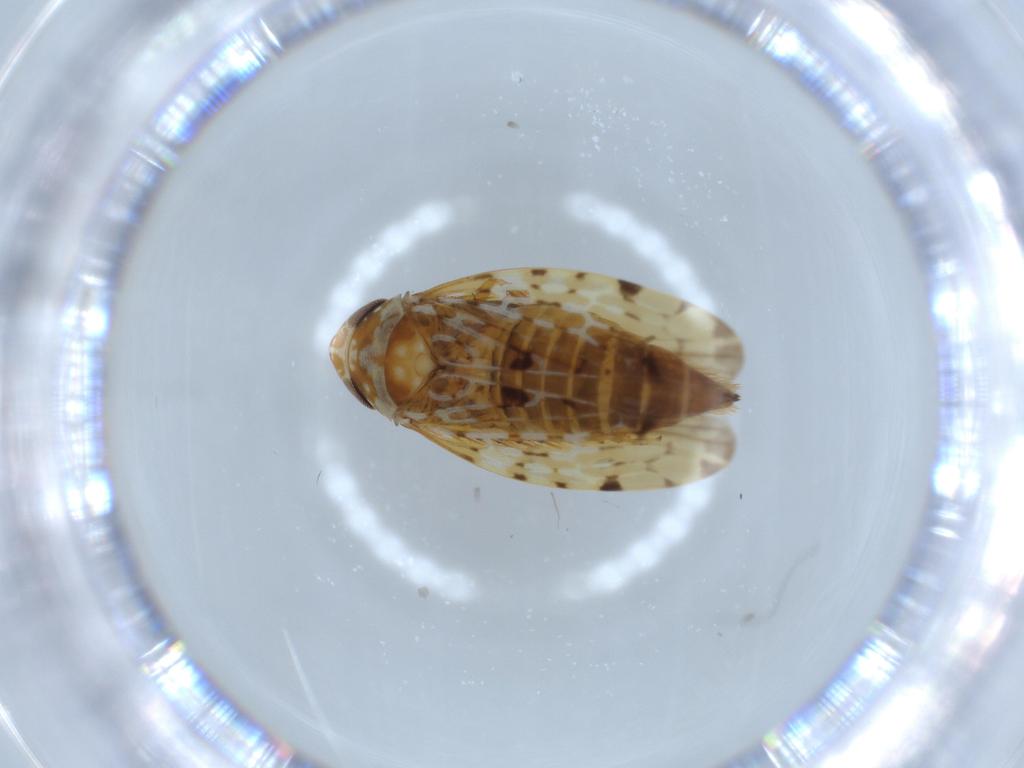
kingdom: Animalia
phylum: Arthropoda
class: Insecta
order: Hemiptera
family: Cicadellidae
